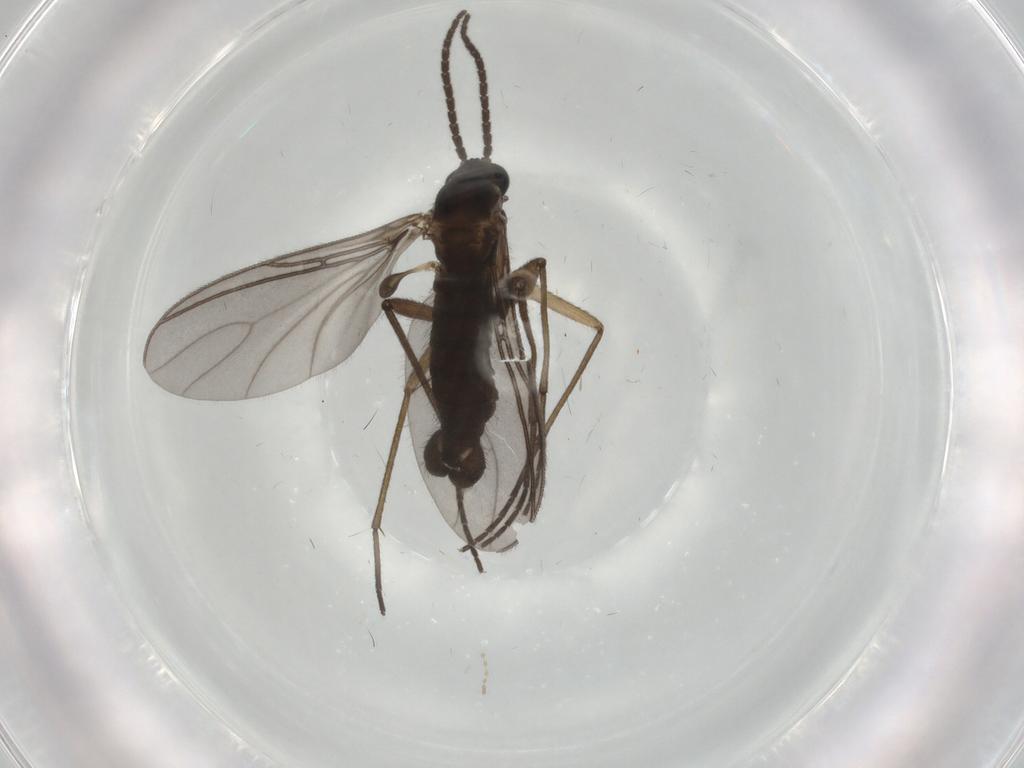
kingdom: Animalia
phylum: Arthropoda
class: Insecta
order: Diptera
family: Sciaridae
